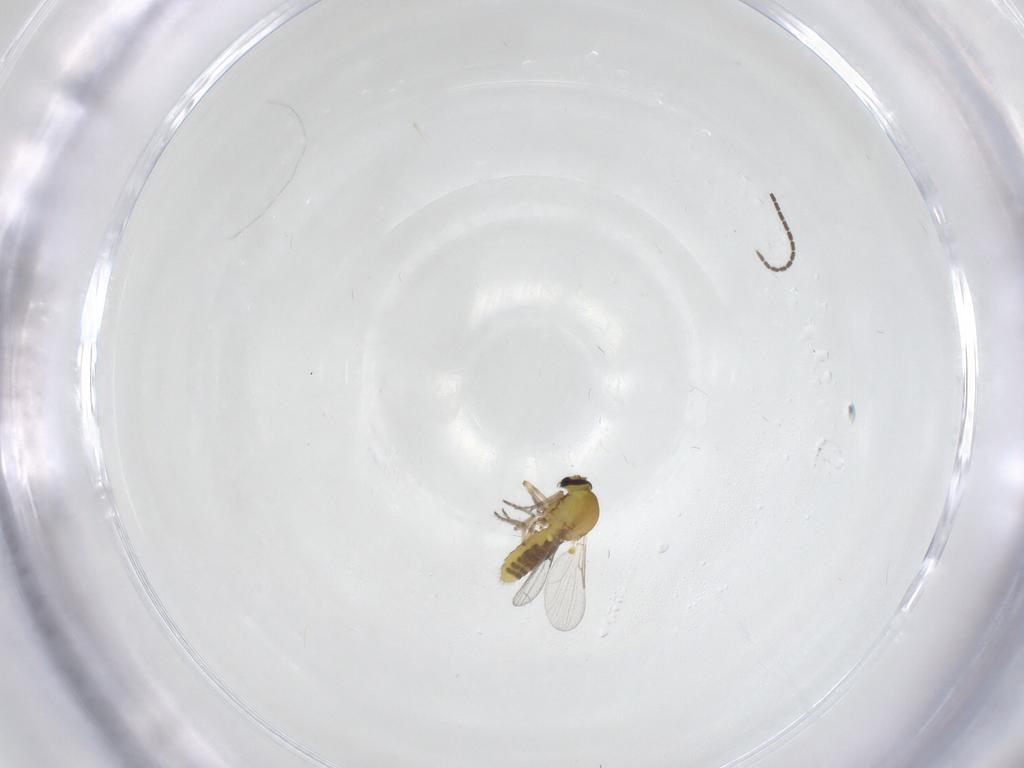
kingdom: Animalia
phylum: Arthropoda
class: Insecta
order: Diptera
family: Sciaridae
